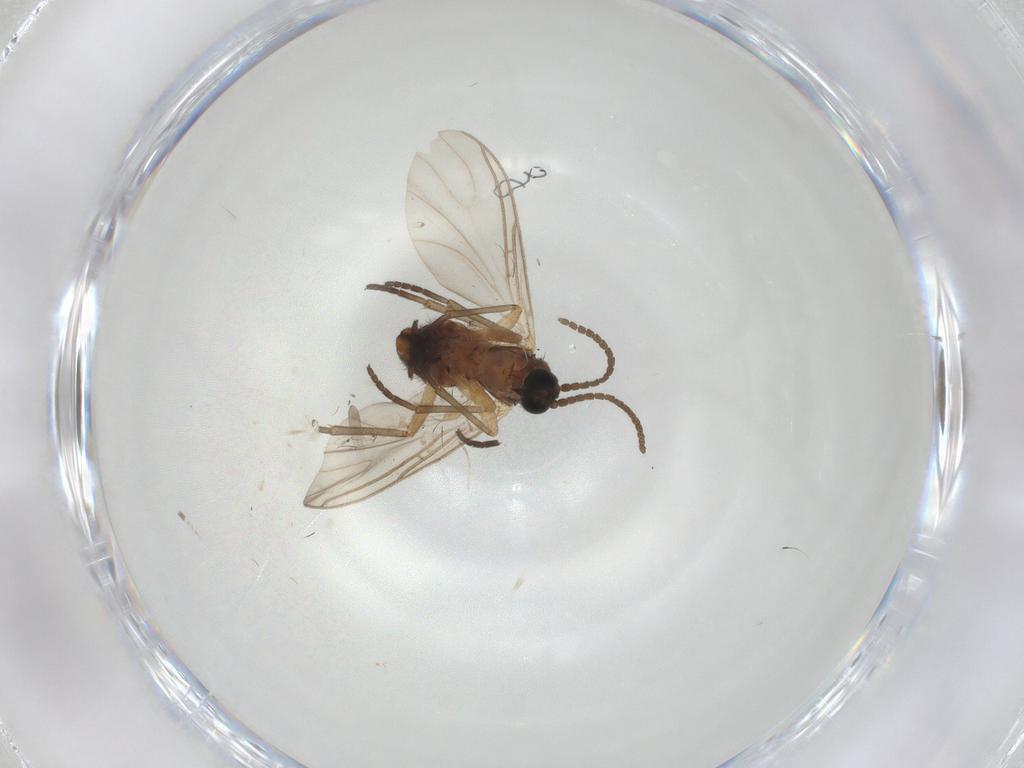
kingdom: Animalia
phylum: Arthropoda
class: Insecta
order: Diptera
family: Sciaridae
